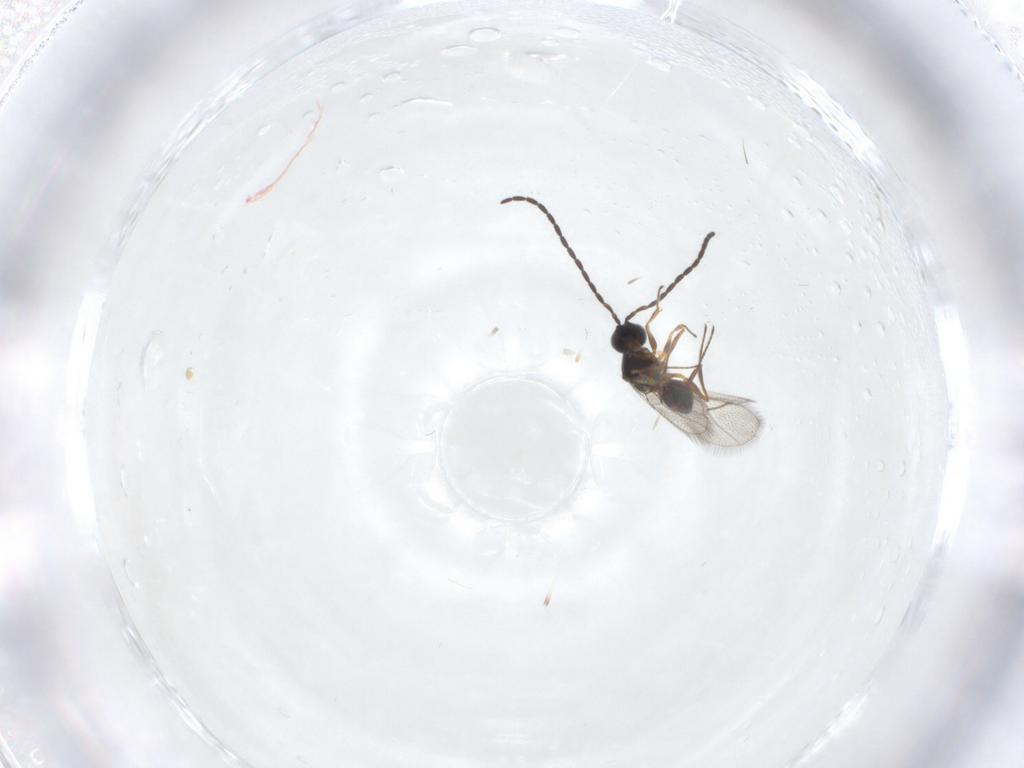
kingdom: Animalia
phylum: Arthropoda
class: Insecta
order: Hymenoptera
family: Figitidae
